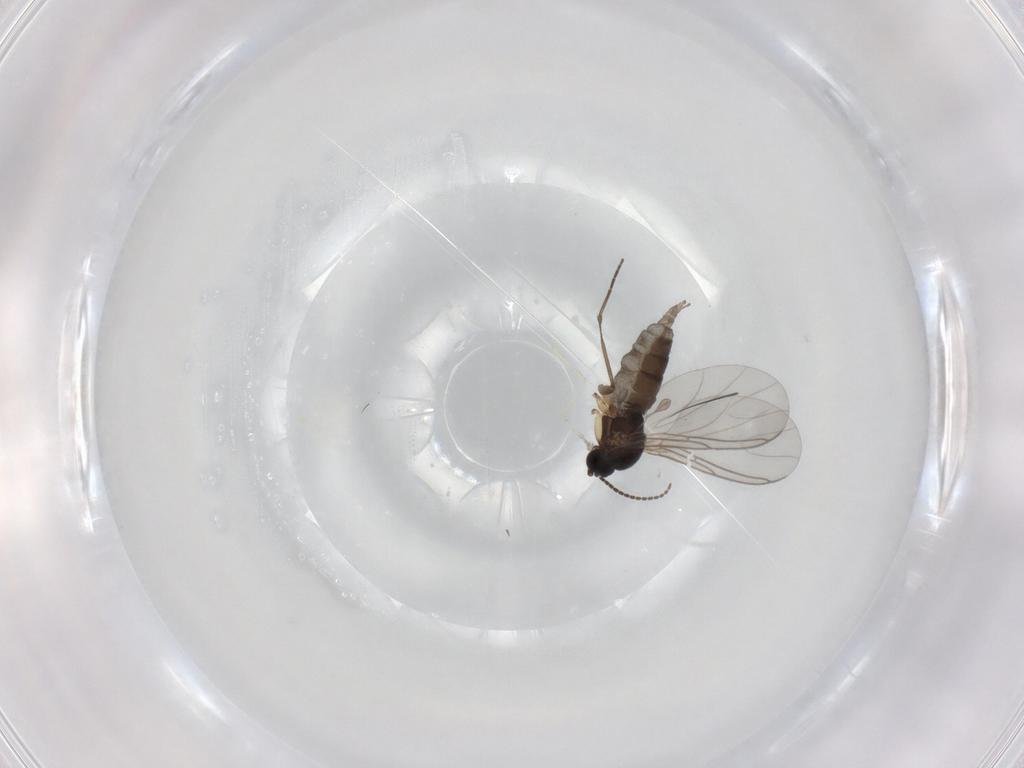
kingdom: Animalia
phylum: Arthropoda
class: Insecta
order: Diptera
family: Sciaridae
